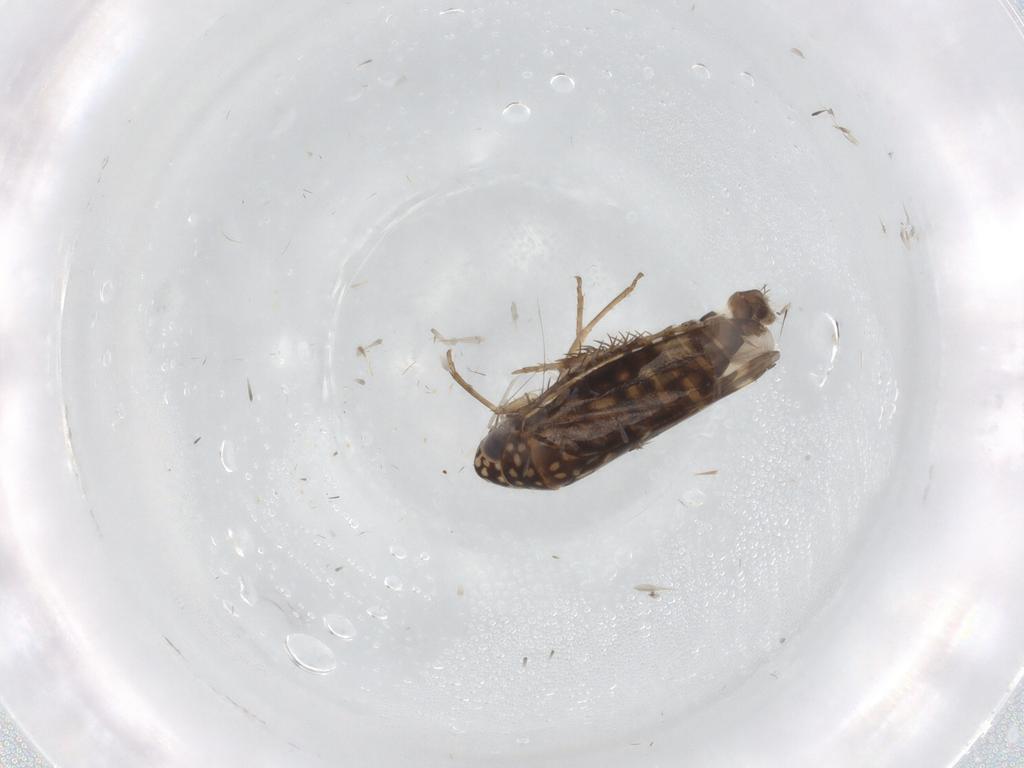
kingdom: Animalia
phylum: Arthropoda
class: Insecta
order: Hemiptera
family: Cicadellidae
